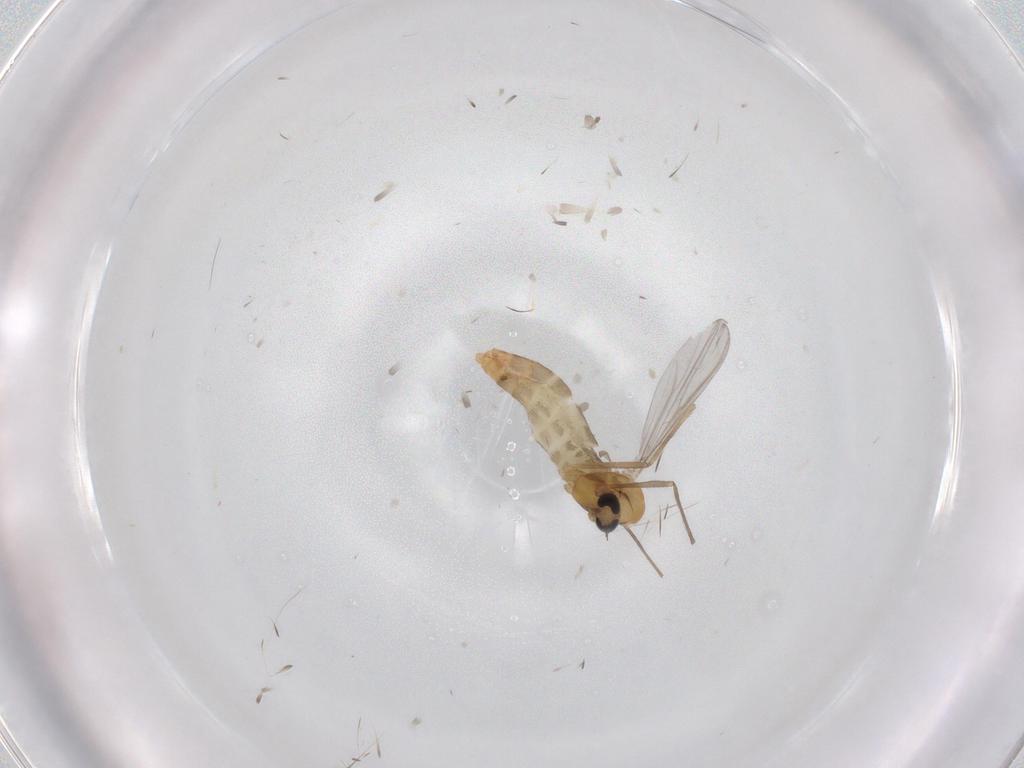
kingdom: Animalia
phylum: Arthropoda
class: Insecta
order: Diptera
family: Chironomidae
